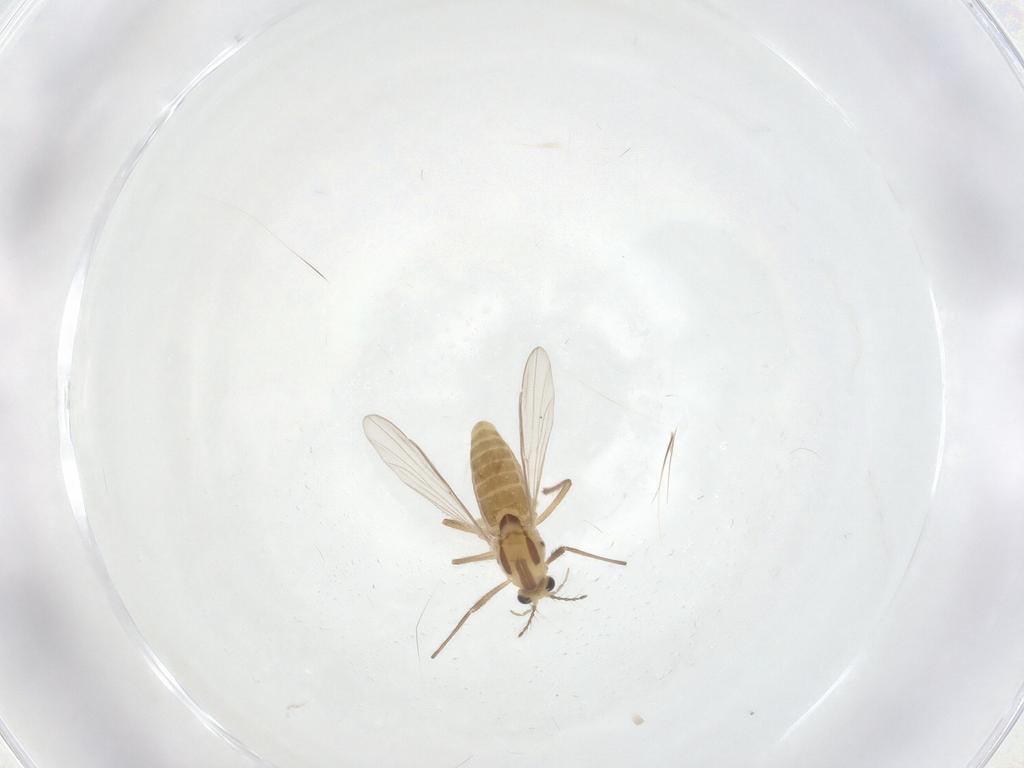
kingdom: Animalia
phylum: Arthropoda
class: Insecta
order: Diptera
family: Chironomidae
